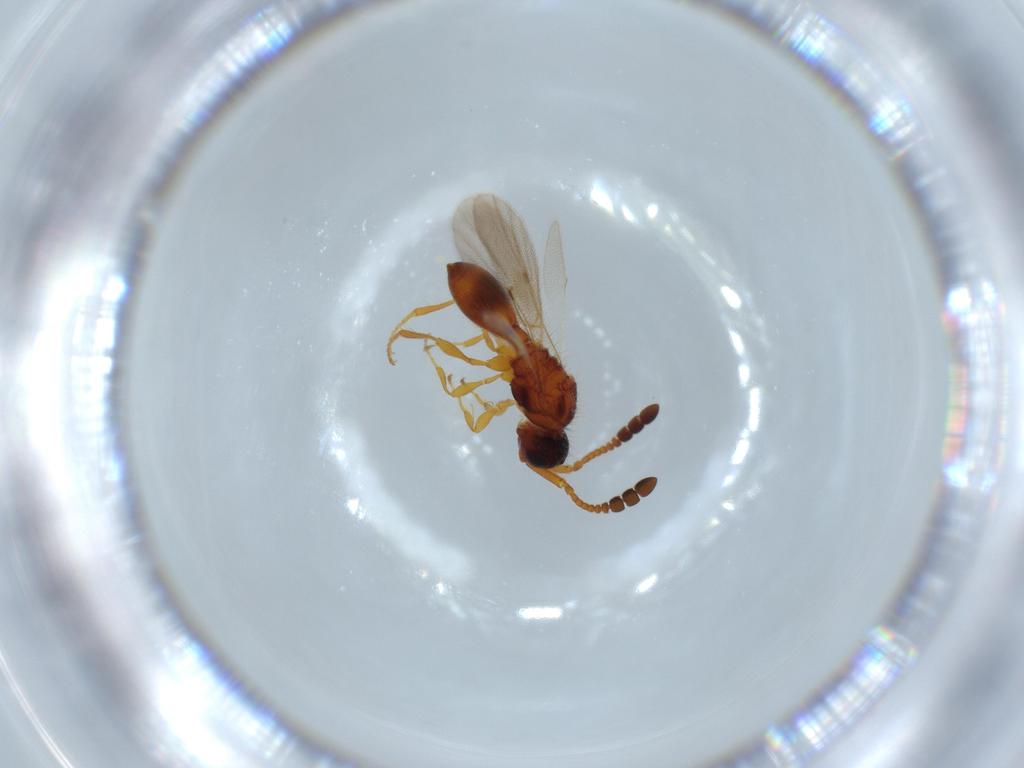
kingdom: Animalia
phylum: Arthropoda
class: Insecta
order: Hymenoptera
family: Diapriidae
